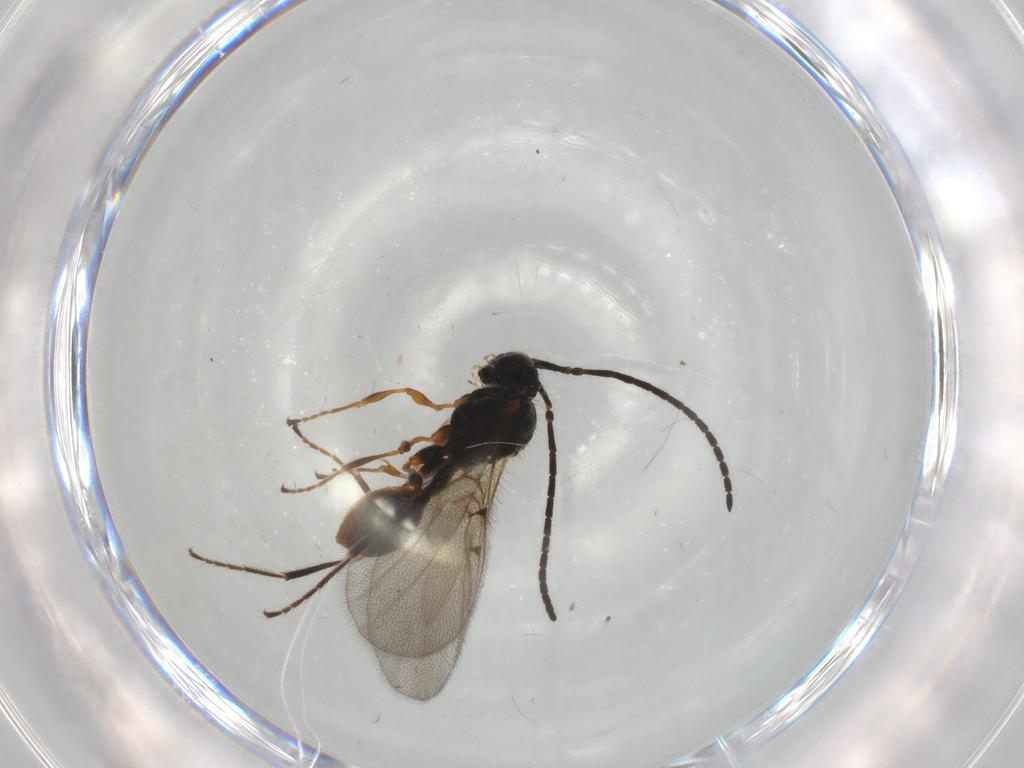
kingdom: Animalia
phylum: Arthropoda
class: Insecta
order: Hymenoptera
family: Diapriidae
